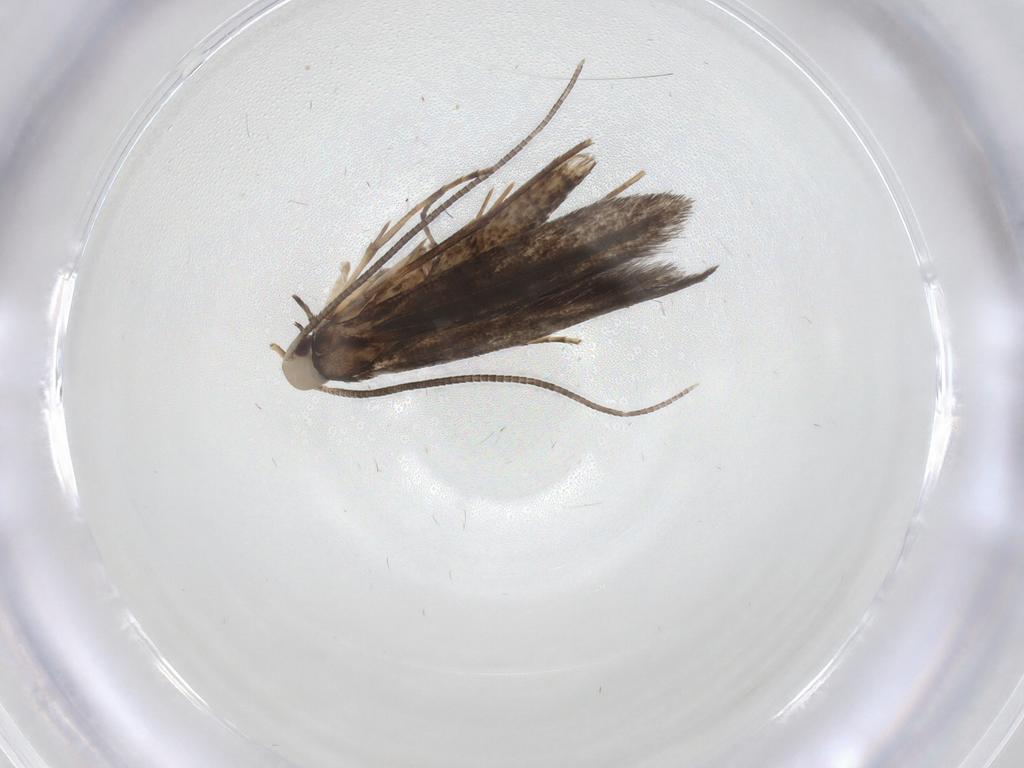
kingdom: Animalia
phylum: Arthropoda
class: Insecta
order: Lepidoptera
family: Gracillariidae
